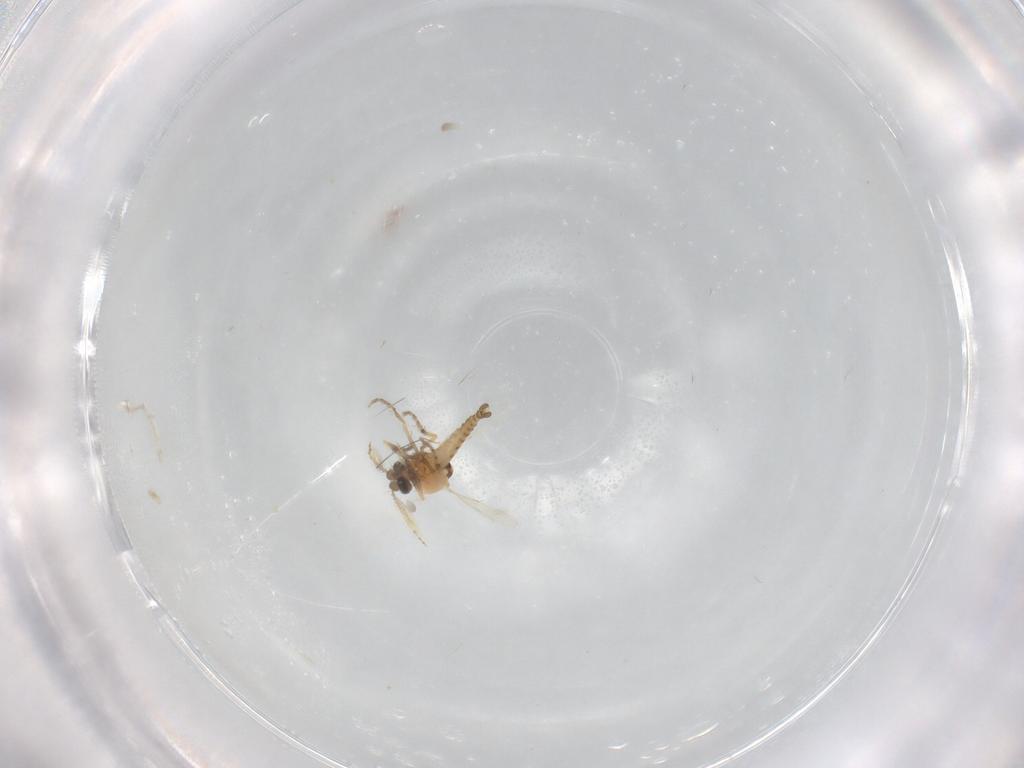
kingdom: Animalia
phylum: Arthropoda
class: Insecta
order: Diptera
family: Ceratopogonidae
